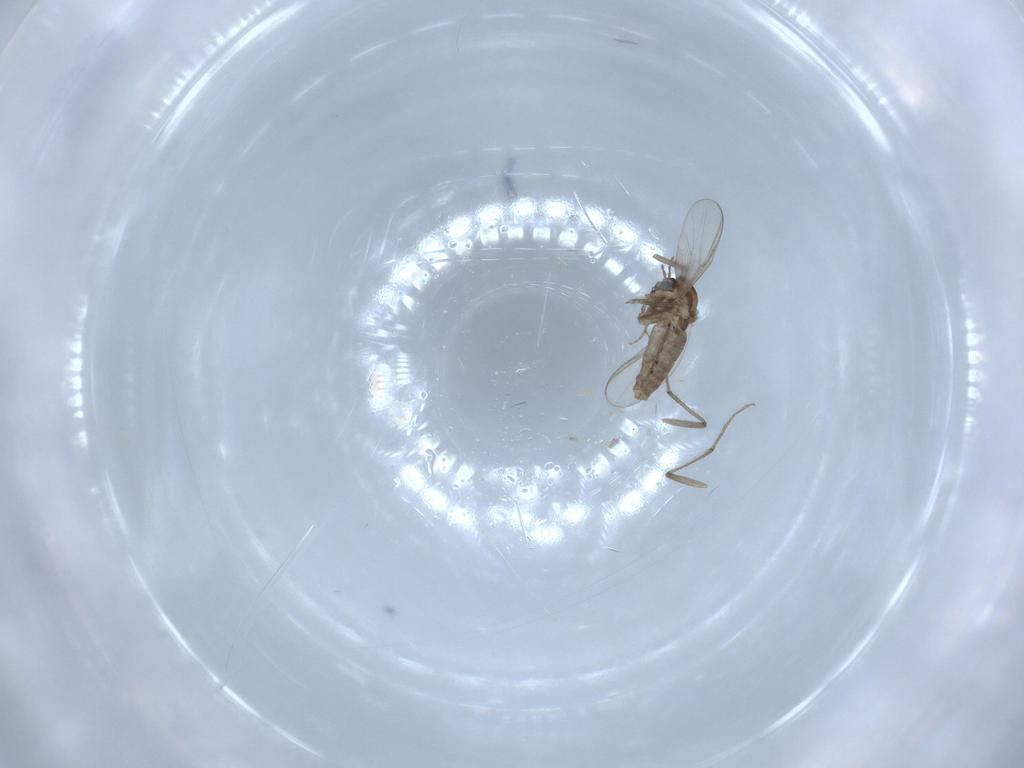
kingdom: Animalia
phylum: Arthropoda
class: Insecta
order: Diptera
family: Chironomidae
